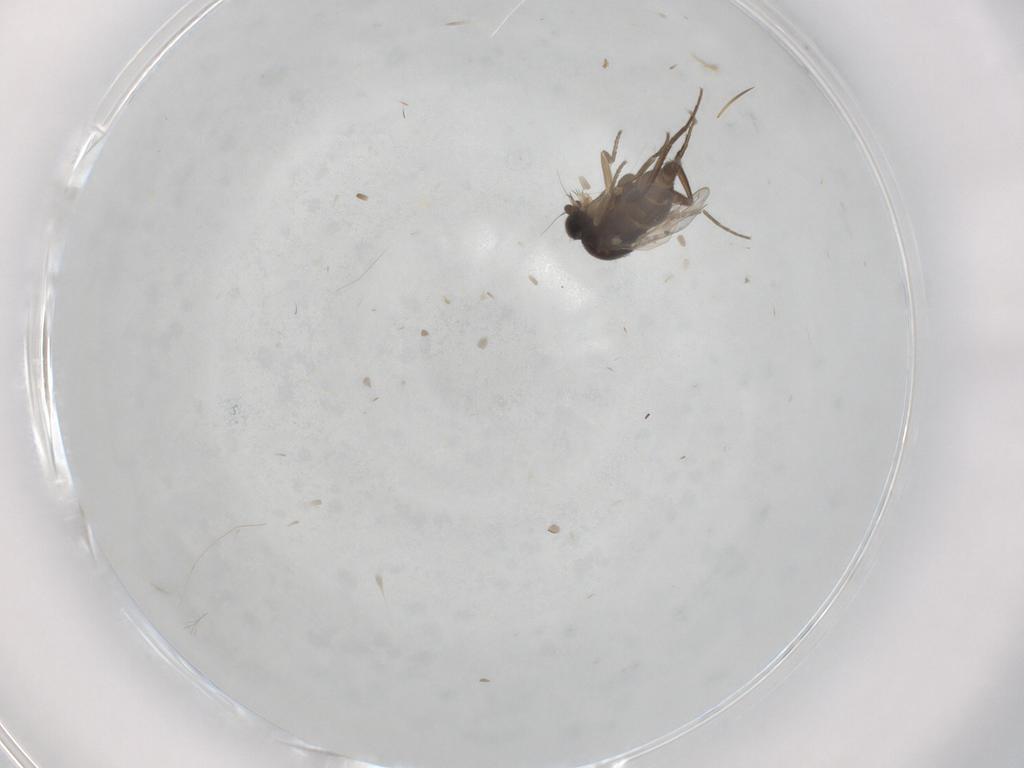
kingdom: Animalia
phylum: Arthropoda
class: Insecta
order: Diptera
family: Phoridae
